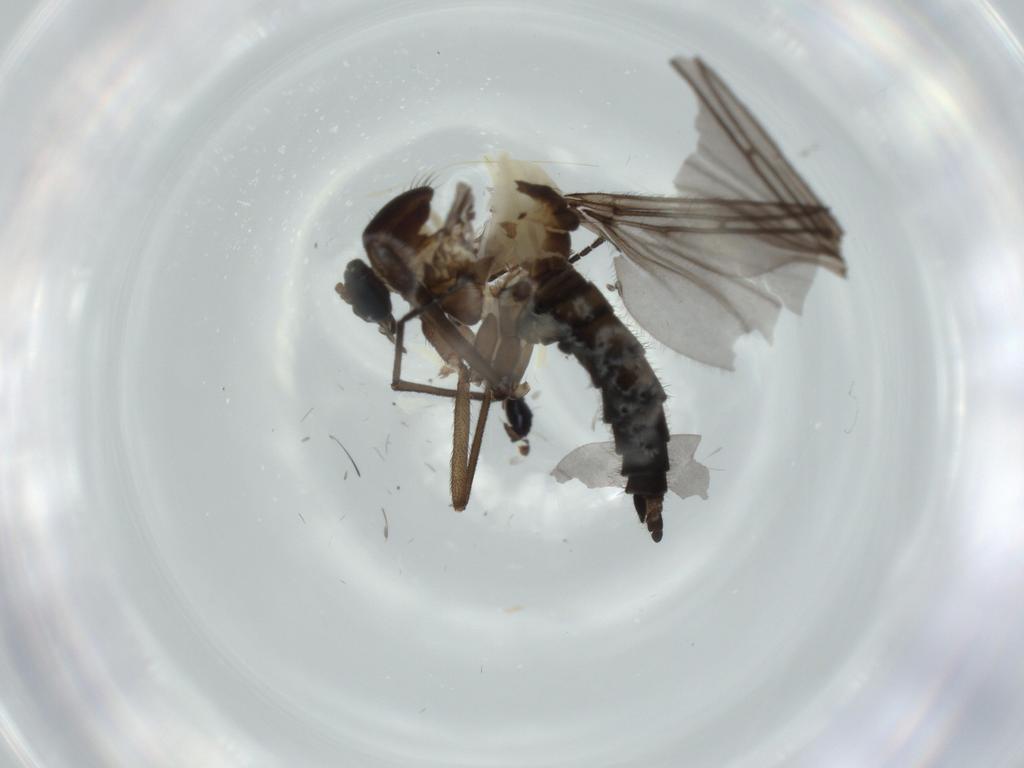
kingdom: Animalia
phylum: Arthropoda
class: Insecta
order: Diptera
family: Sciaridae
